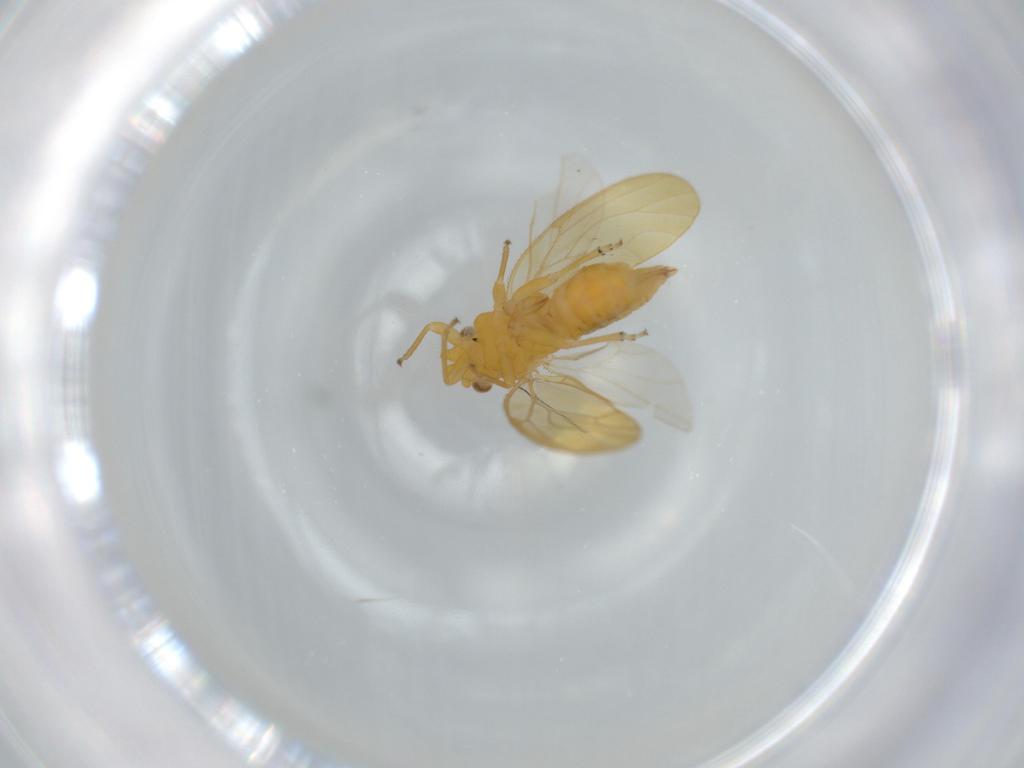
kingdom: Animalia
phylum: Arthropoda
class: Insecta
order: Hemiptera
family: Psyllidae
